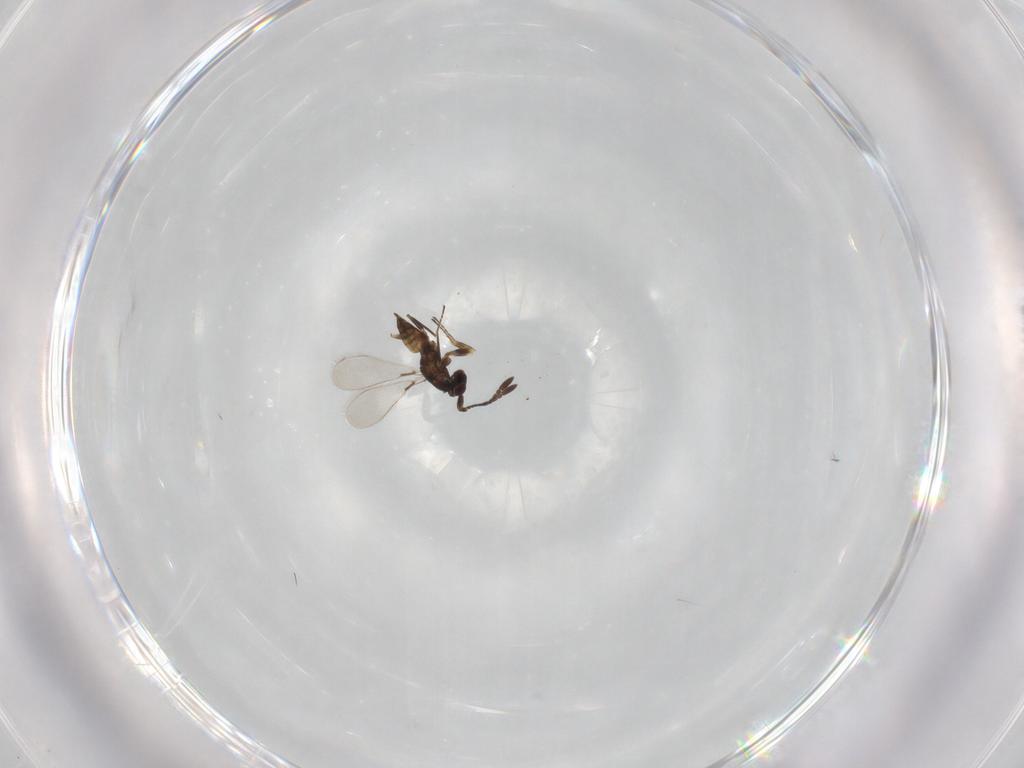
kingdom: Animalia
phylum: Arthropoda
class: Insecta
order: Hymenoptera
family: Mymaridae
